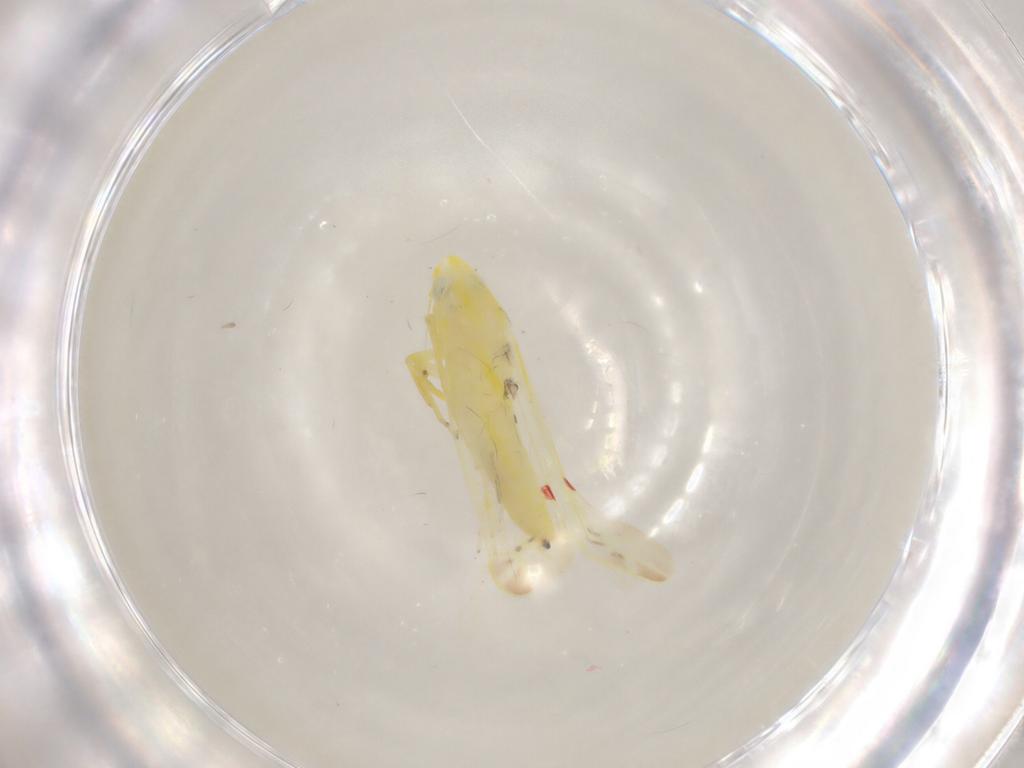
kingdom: Animalia
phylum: Arthropoda
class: Insecta
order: Hemiptera
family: Cicadellidae
